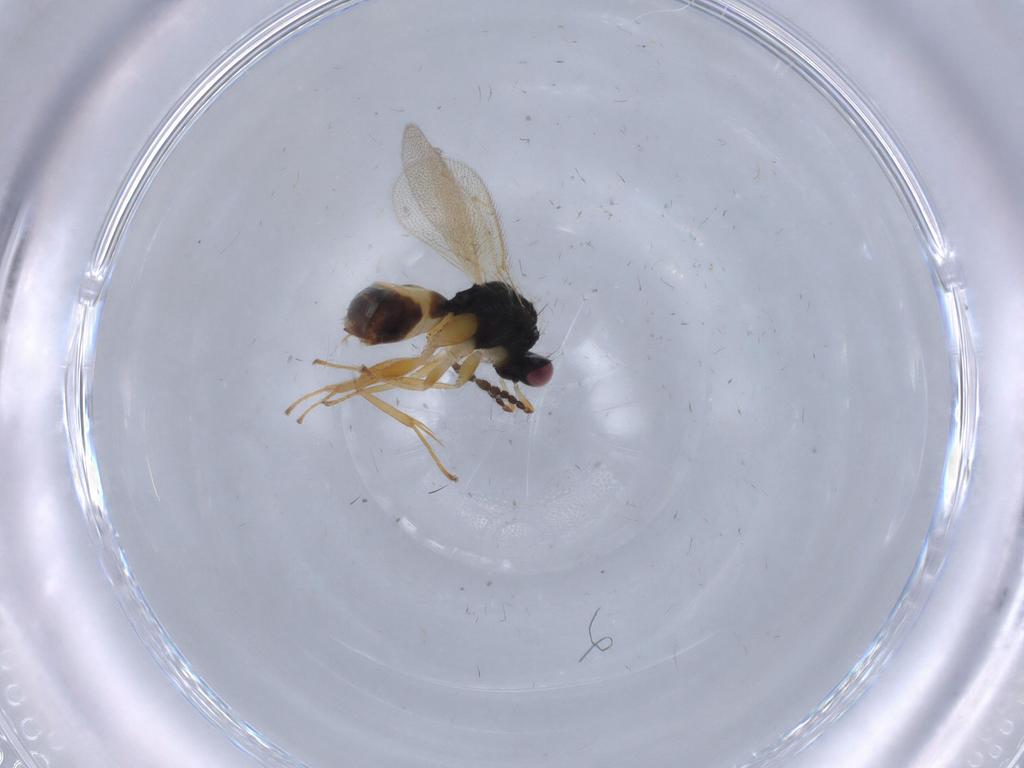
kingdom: Animalia
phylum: Arthropoda
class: Insecta
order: Hymenoptera
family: Eulophidae
